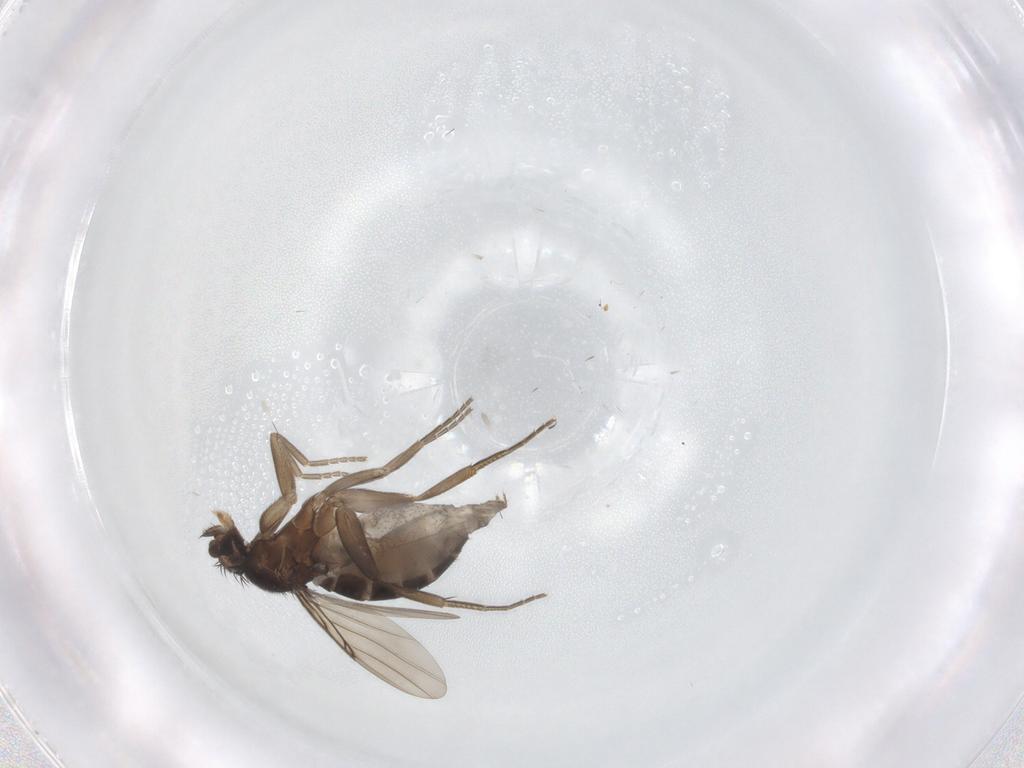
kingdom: Animalia
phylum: Arthropoda
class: Insecta
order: Diptera
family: Phoridae
